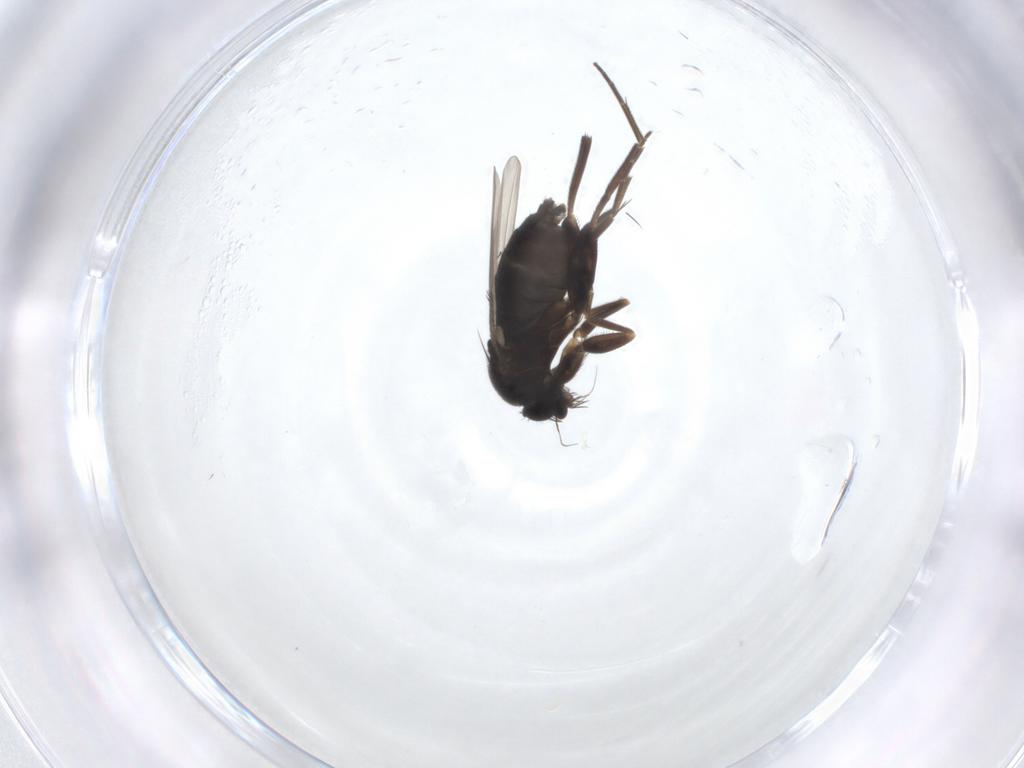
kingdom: Animalia
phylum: Arthropoda
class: Insecta
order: Diptera
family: Phoridae
